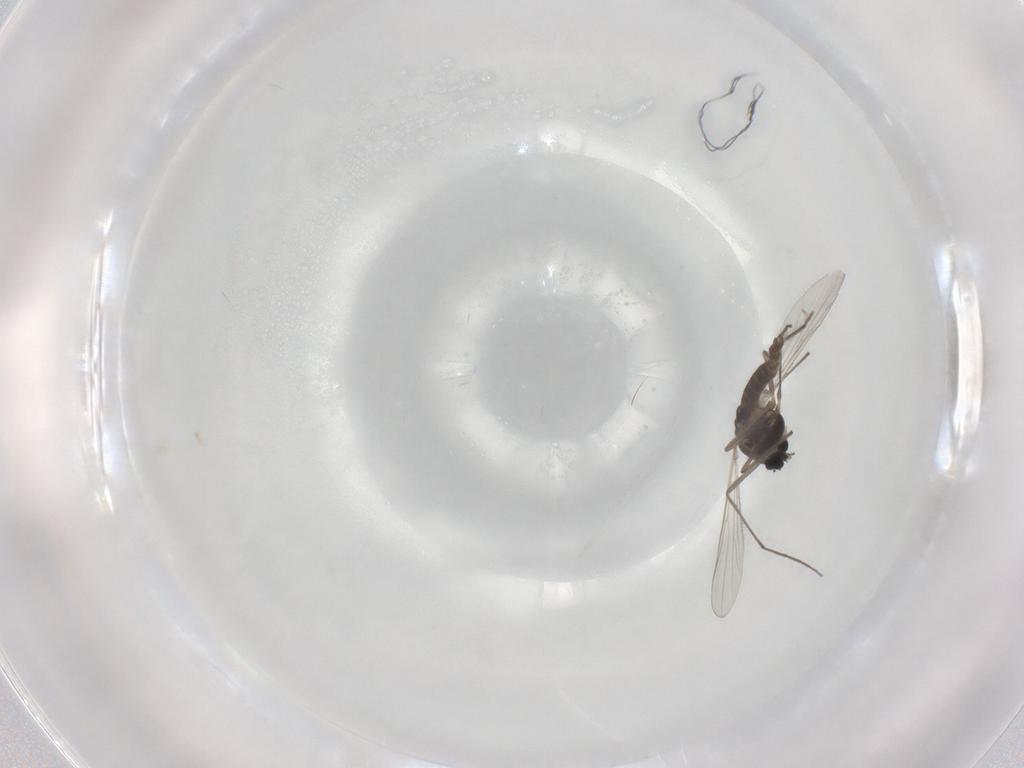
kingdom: Animalia
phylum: Arthropoda
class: Insecta
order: Diptera
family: Chironomidae
